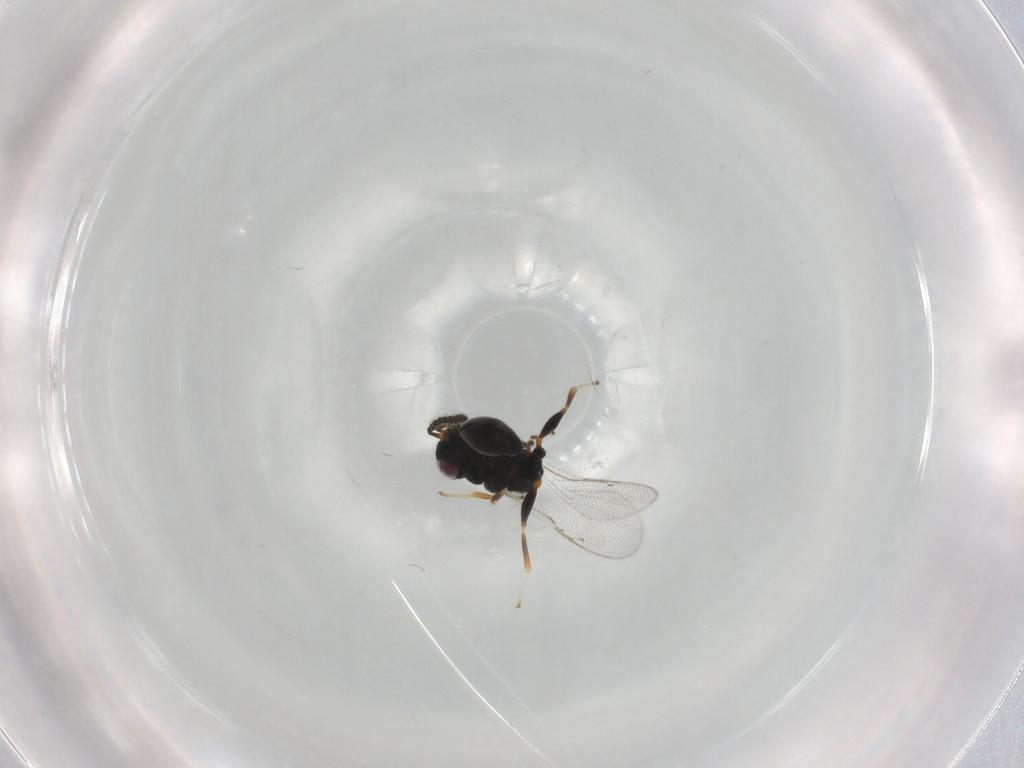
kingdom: Animalia
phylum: Arthropoda
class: Insecta
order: Hymenoptera
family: Eurytomidae
